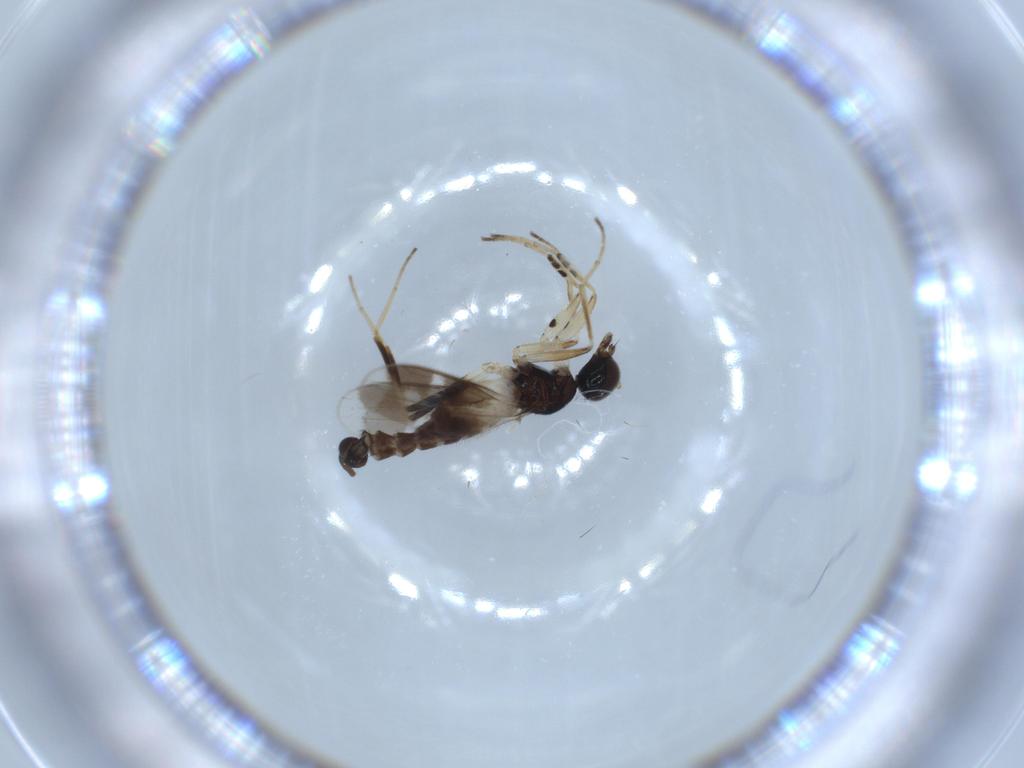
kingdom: Animalia
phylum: Arthropoda
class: Insecta
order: Diptera
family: Hybotidae
